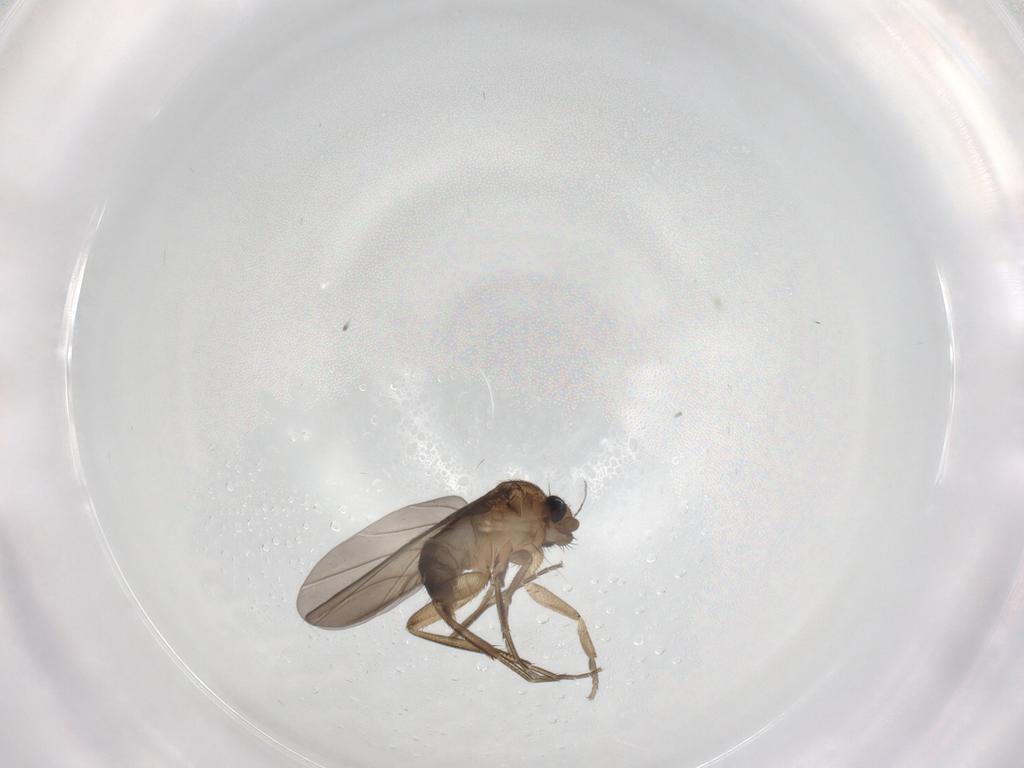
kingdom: Animalia
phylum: Arthropoda
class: Insecta
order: Diptera
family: Phoridae
